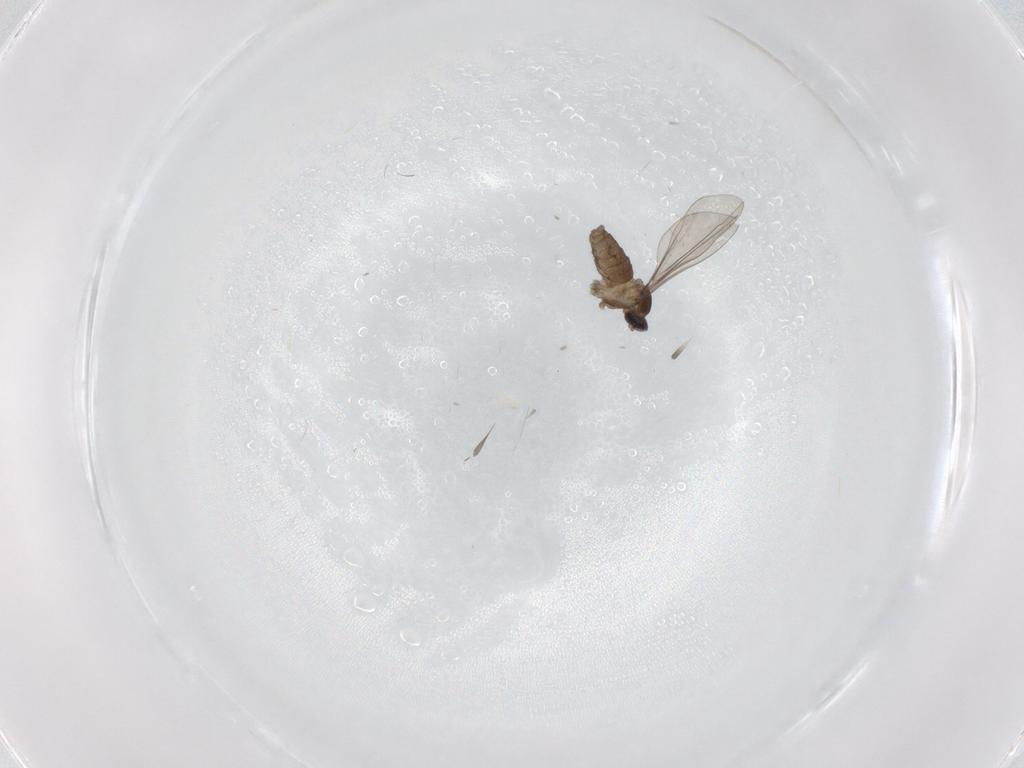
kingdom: Animalia
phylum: Arthropoda
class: Insecta
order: Diptera
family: Cecidomyiidae
